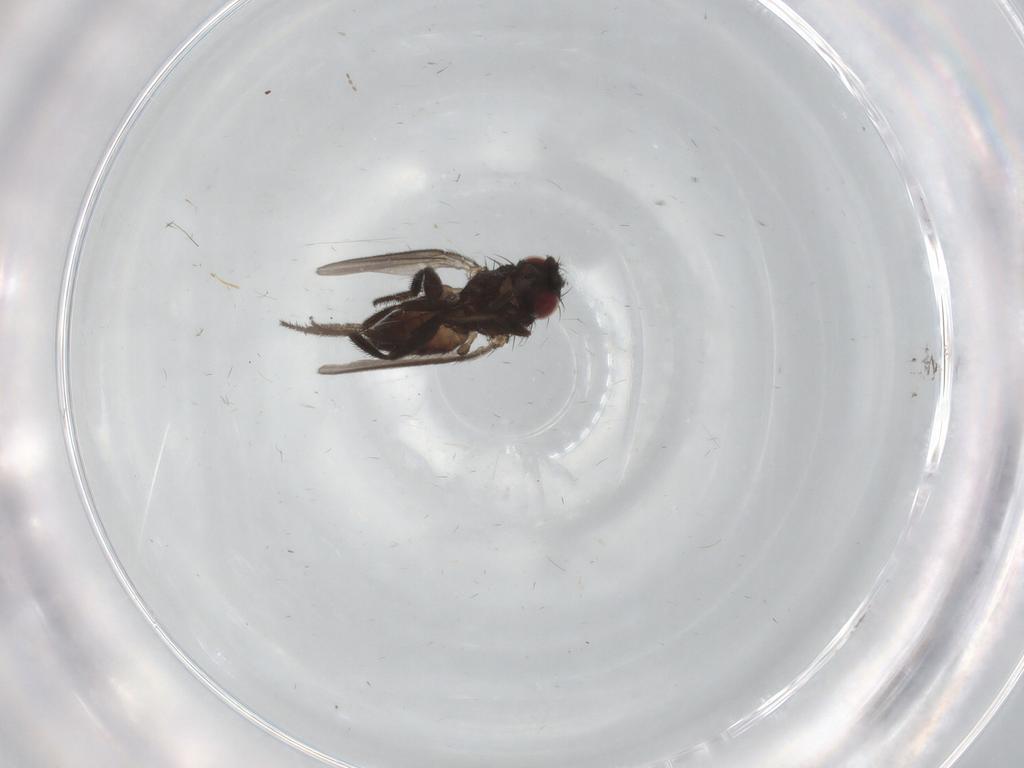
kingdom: Animalia
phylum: Arthropoda
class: Insecta
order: Diptera
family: Milichiidae
